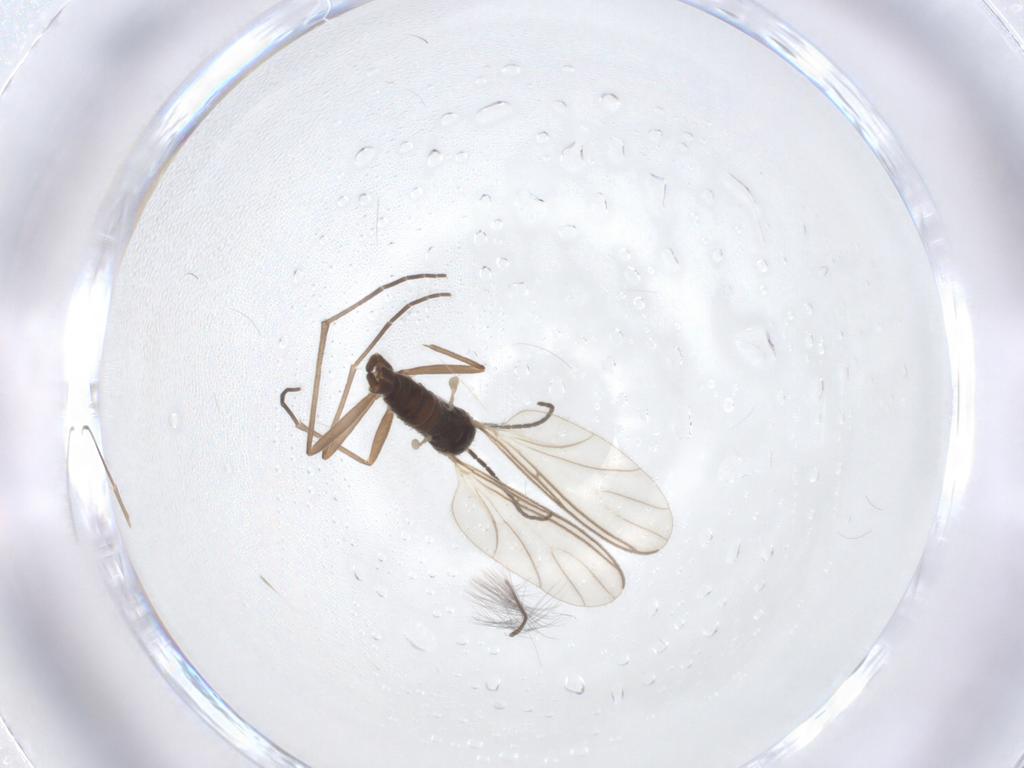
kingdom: Animalia
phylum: Arthropoda
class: Insecta
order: Diptera
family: Sciaridae
